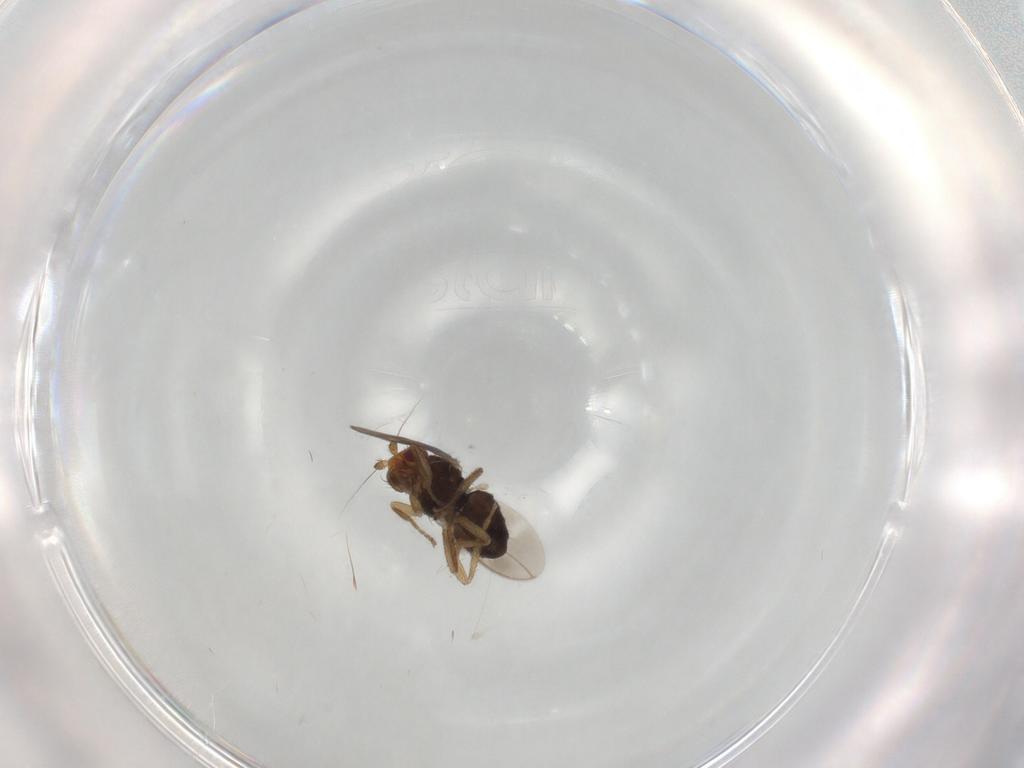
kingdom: Animalia
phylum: Arthropoda
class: Insecta
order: Diptera
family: Sphaeroceridae
